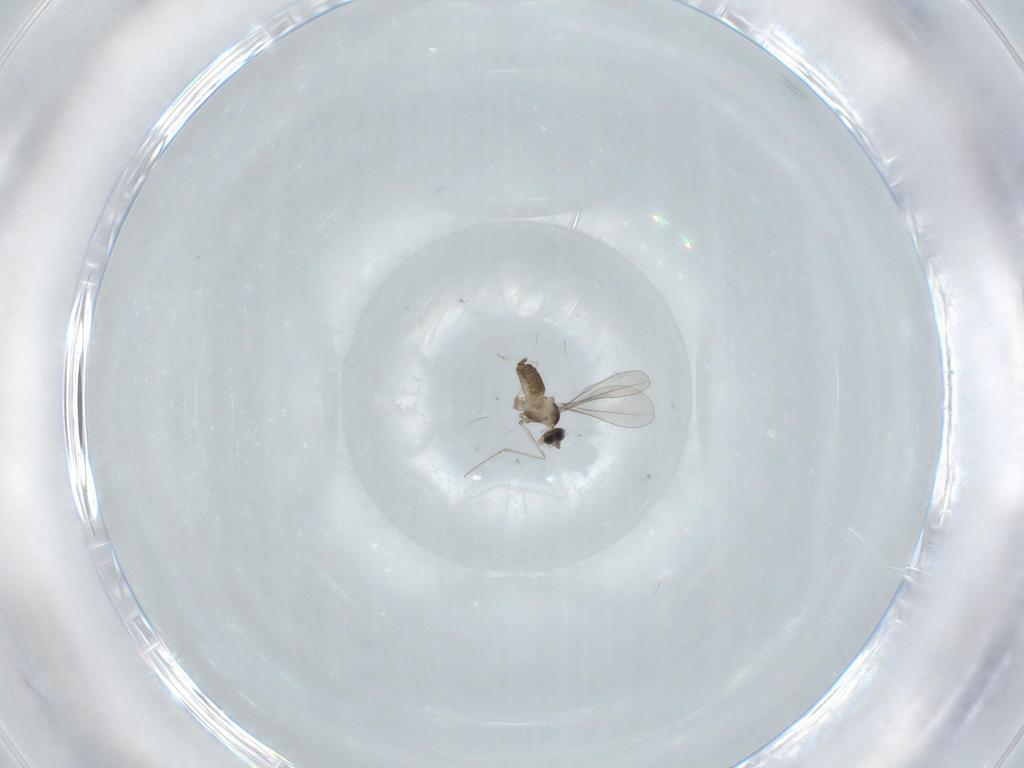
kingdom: Animalia
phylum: Arthropoda
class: Insecta
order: Diptera
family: Cecidomyiidae
